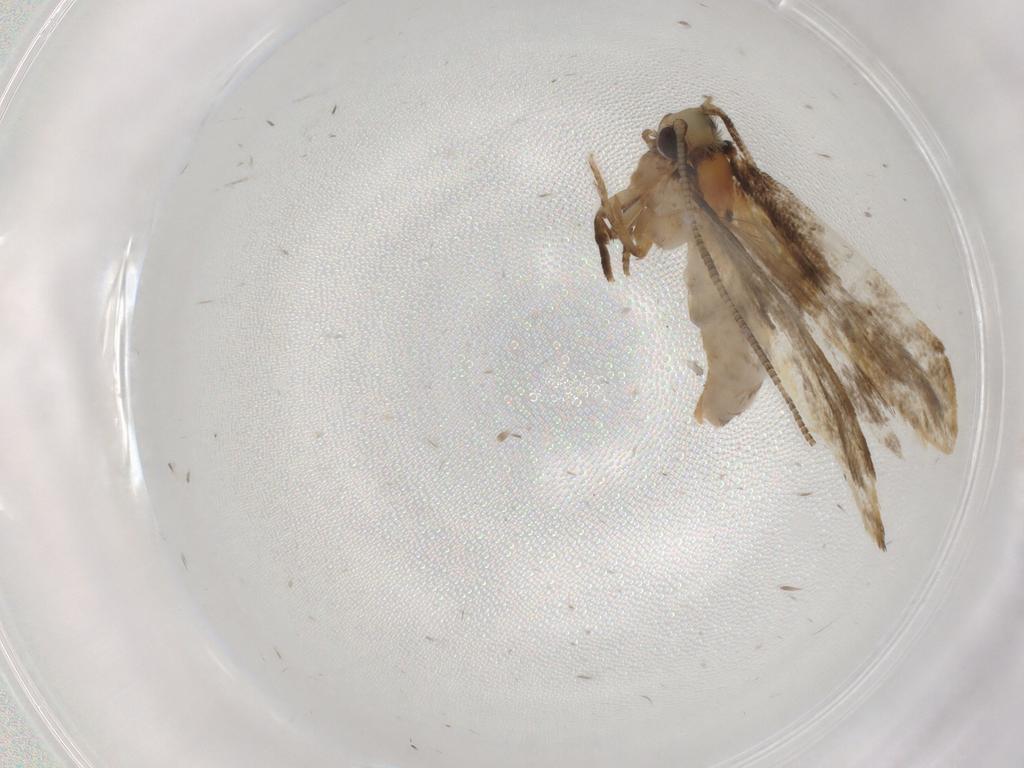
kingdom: Animalia
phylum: Arthropoda
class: Insecta
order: Lepidoptera
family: Tineidae
